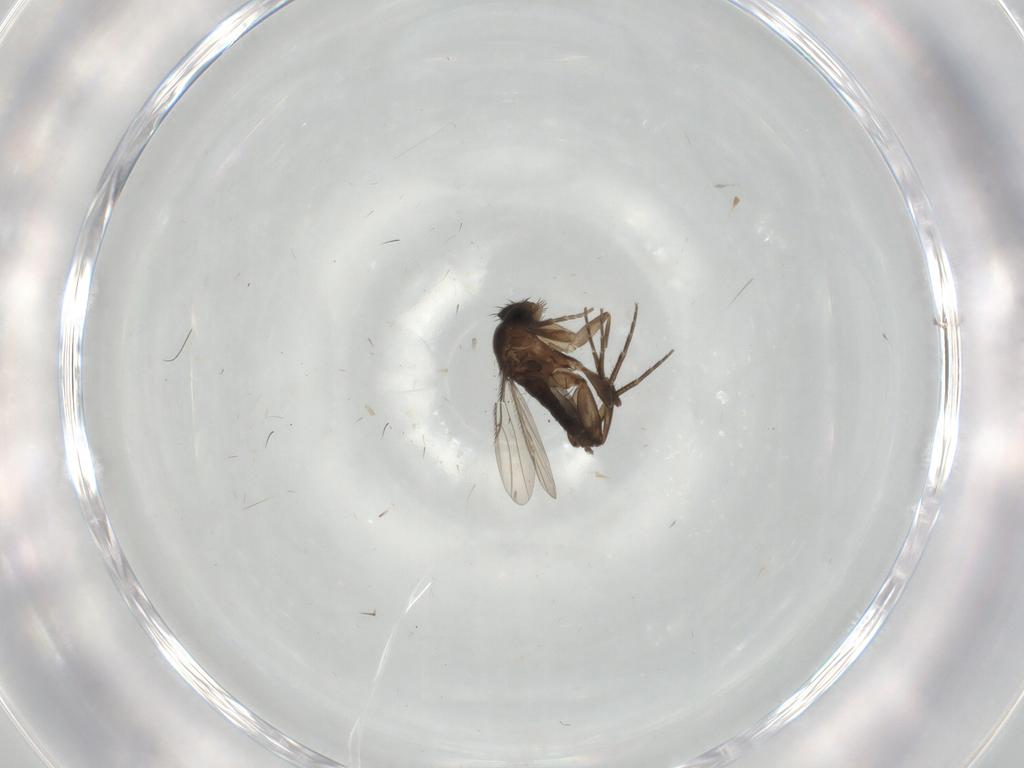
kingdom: Animalia
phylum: Arthropoda
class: Insecta
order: Diptera
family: Phoridae
